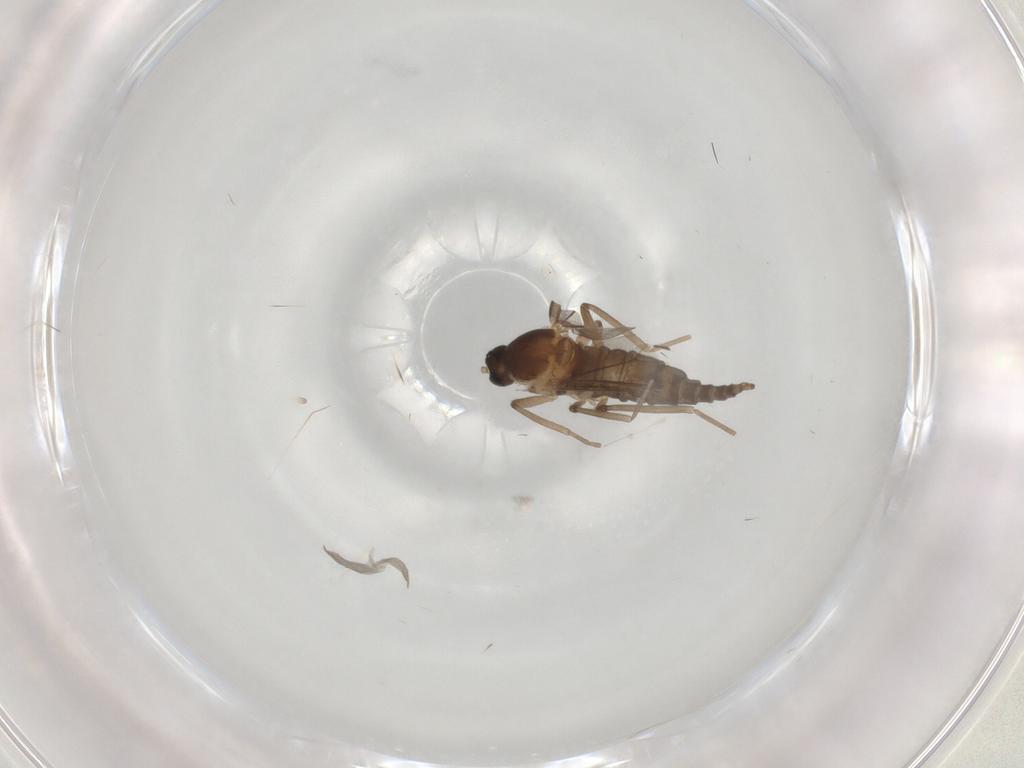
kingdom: Animalia
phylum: Arthropoda
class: Insecta
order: Diptera
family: Cecidomyiidae
